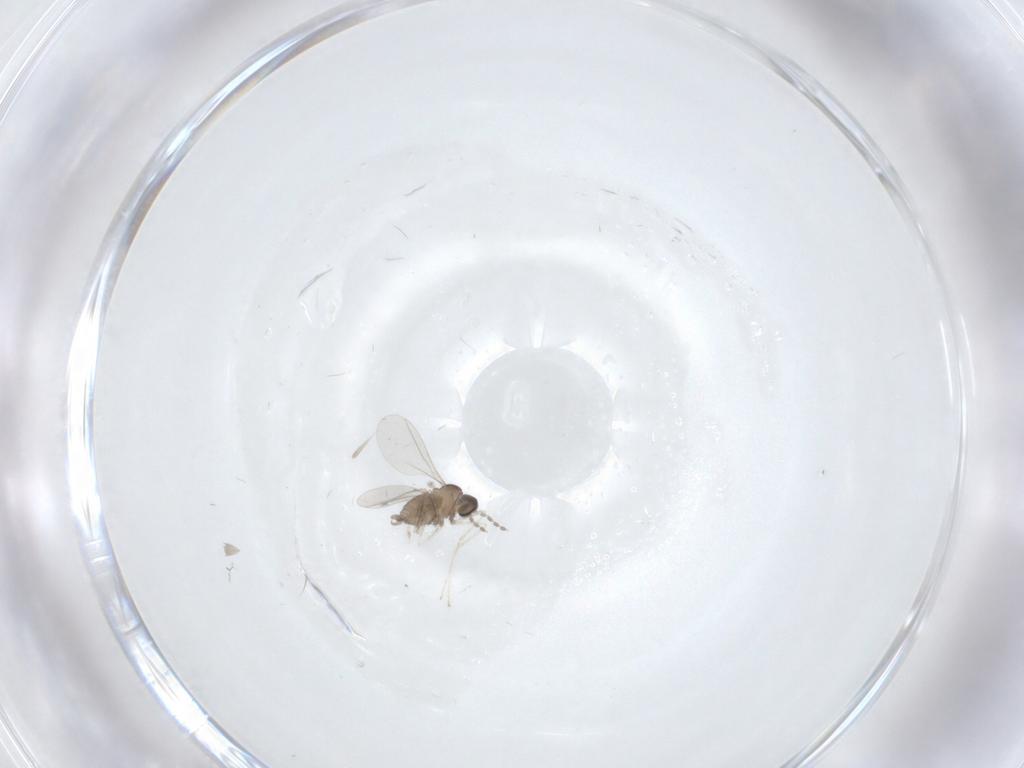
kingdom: Animalia
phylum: Arthropoda
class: Insecta
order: Diptera
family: Cecidomyiidae
